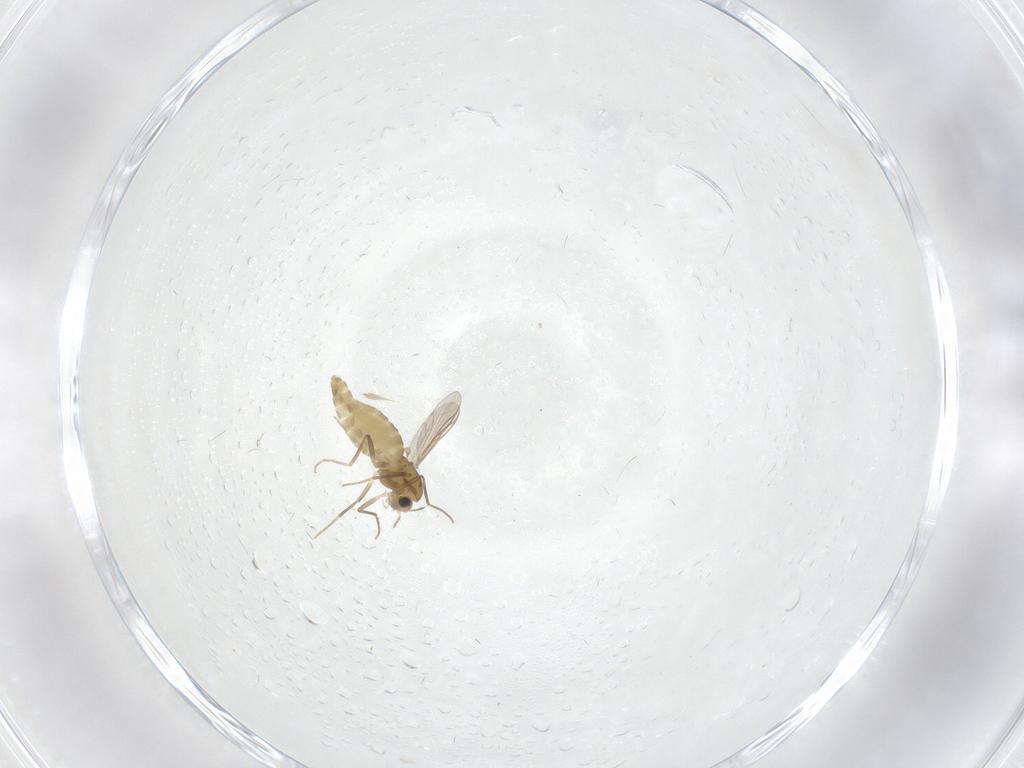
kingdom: Animalia
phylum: Arthropoda
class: Insecta
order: Diptera
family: Chironomidae
